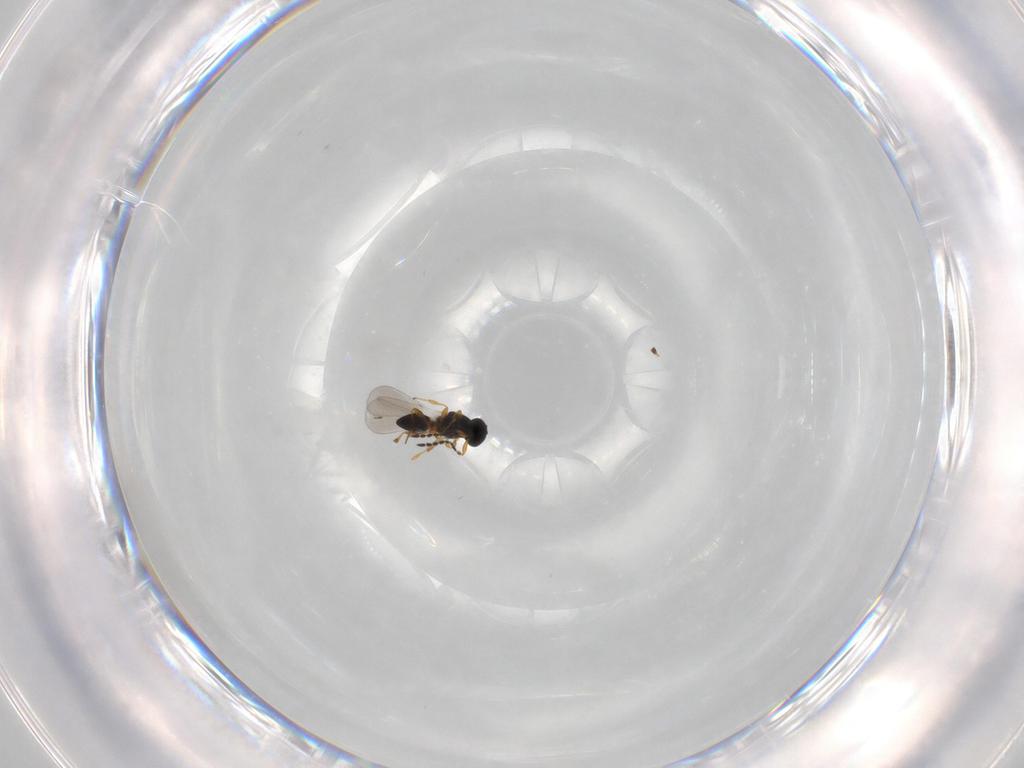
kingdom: Animalia
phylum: Arthropoda
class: Insecta
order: Hymenoptera
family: Platygastridae
